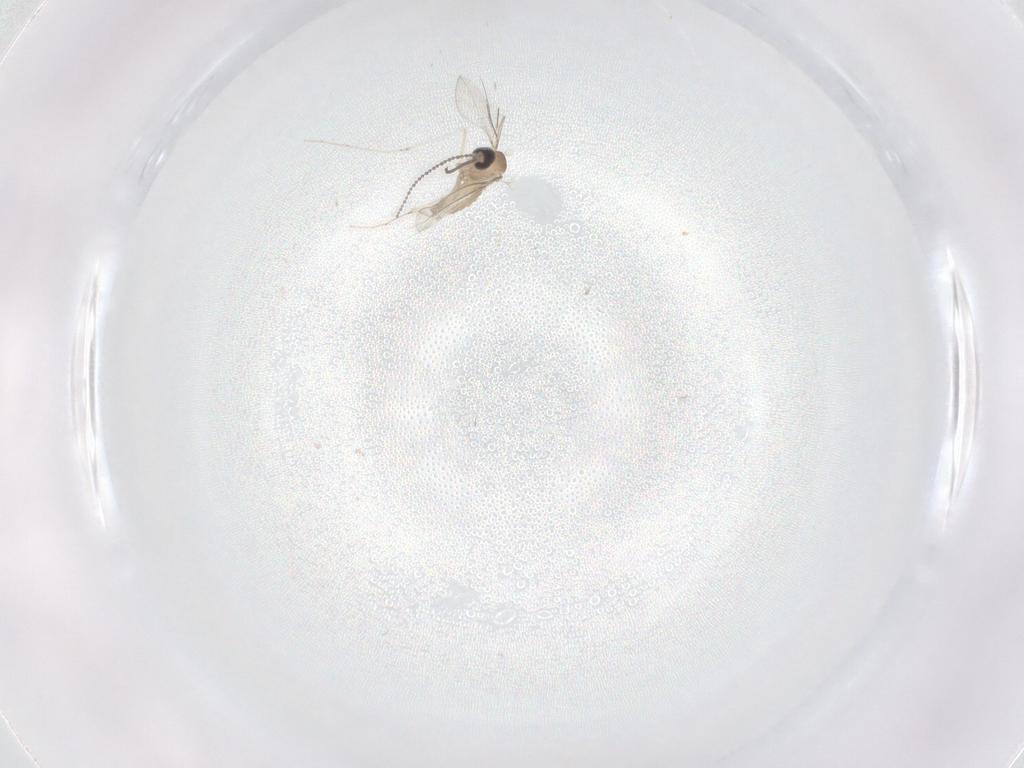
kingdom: Animalia
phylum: Arthropoda
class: Insecta
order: Diptera
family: Cecidomyiidae
